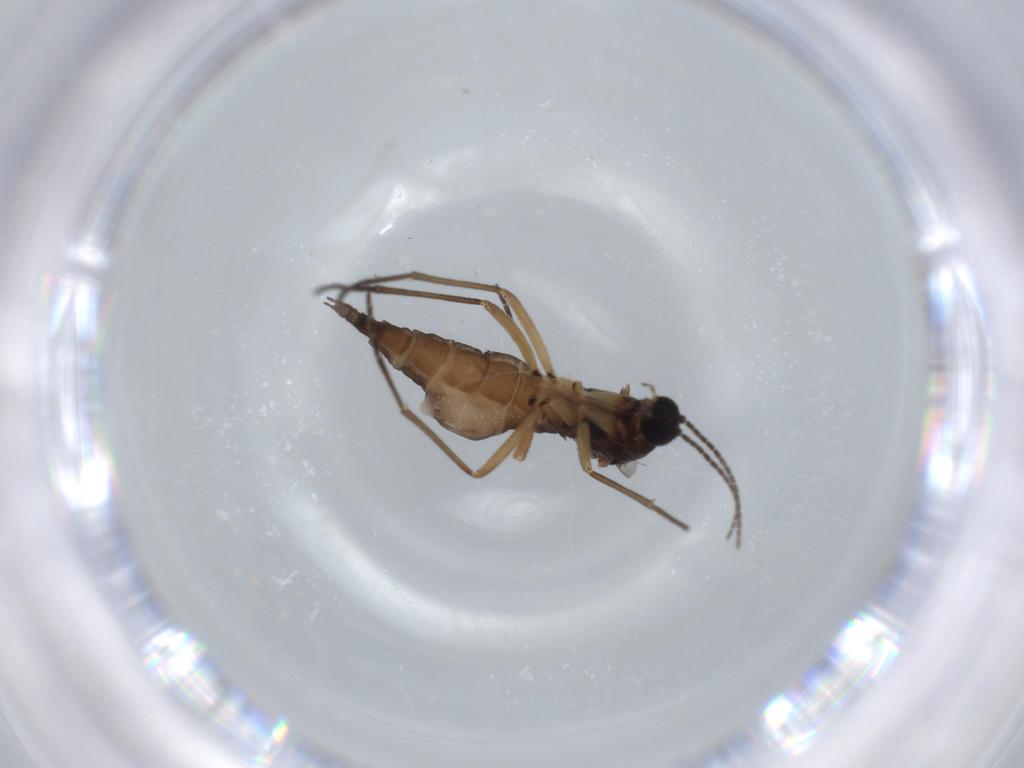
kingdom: Animalia
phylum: Arthropoda
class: Insecta
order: Diptera
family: Sciaridae
